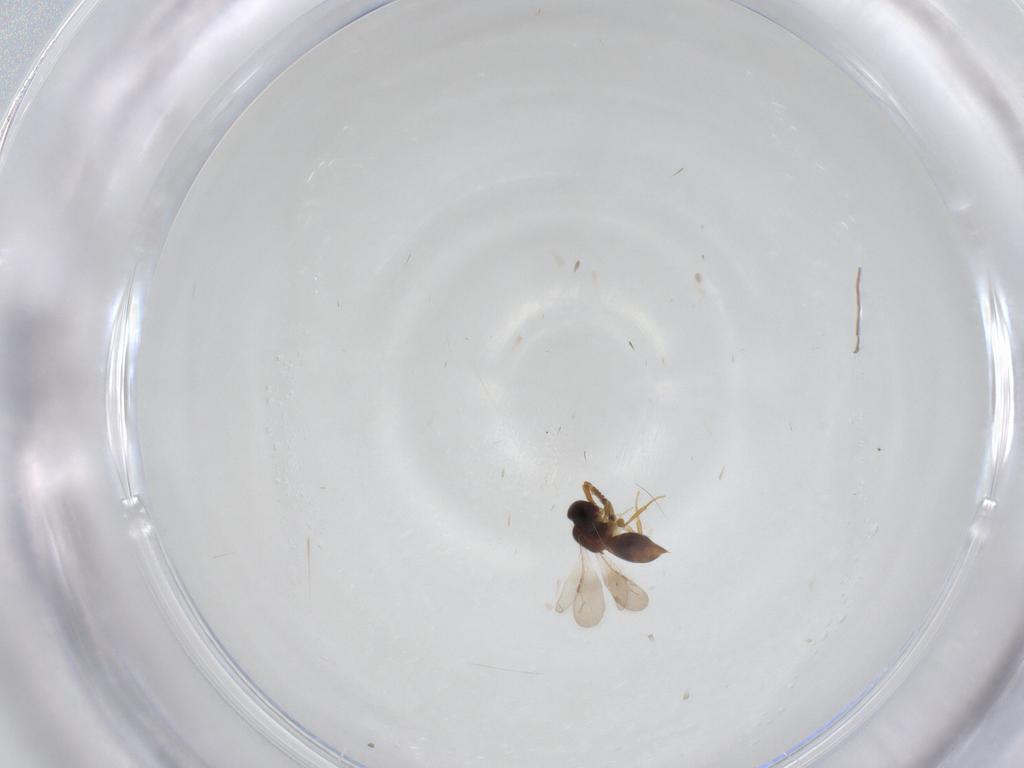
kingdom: Animalia
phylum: Arthropoda
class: Insecta
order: Hymenoptera
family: Ceraphronidae
